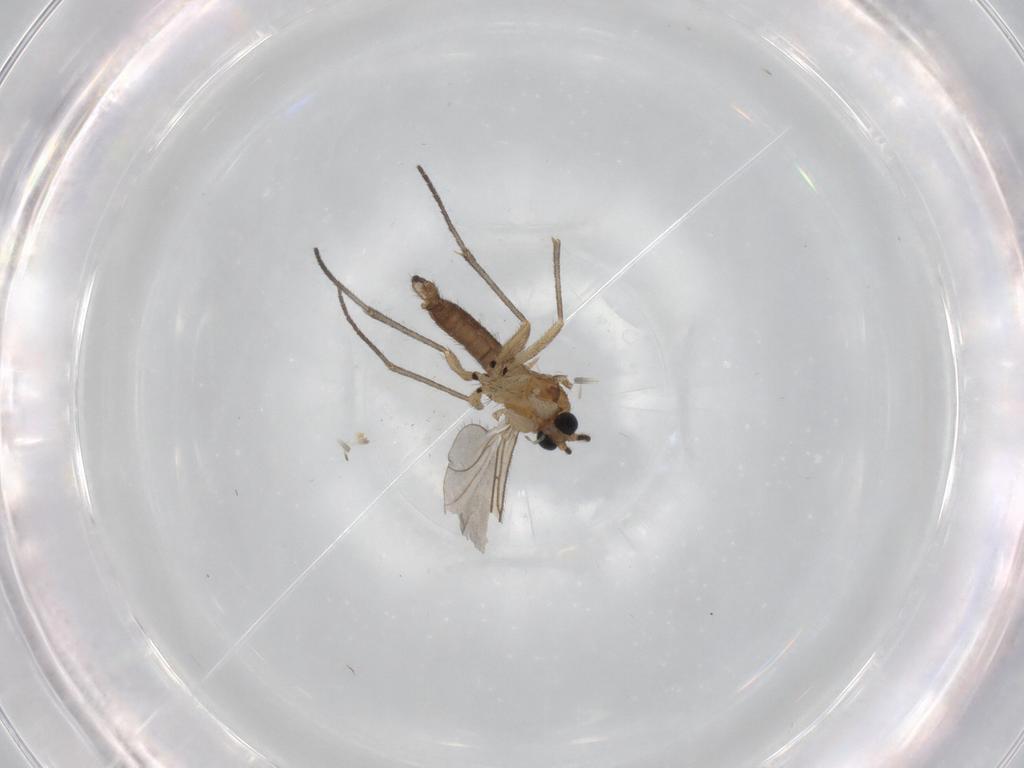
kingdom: Animalia
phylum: Arthropoda
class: Insecta
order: Diptera
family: Sciaridae
